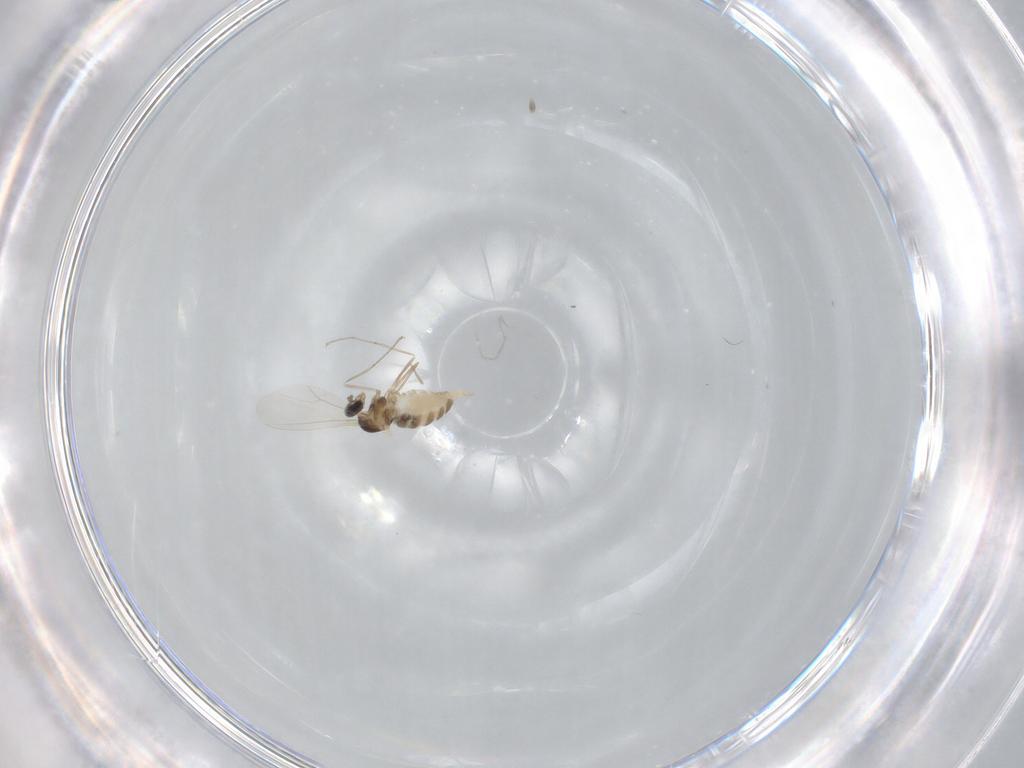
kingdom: Animalia
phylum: Arthropoda
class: Insecta
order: Diptera
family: Cecidomyiidae
